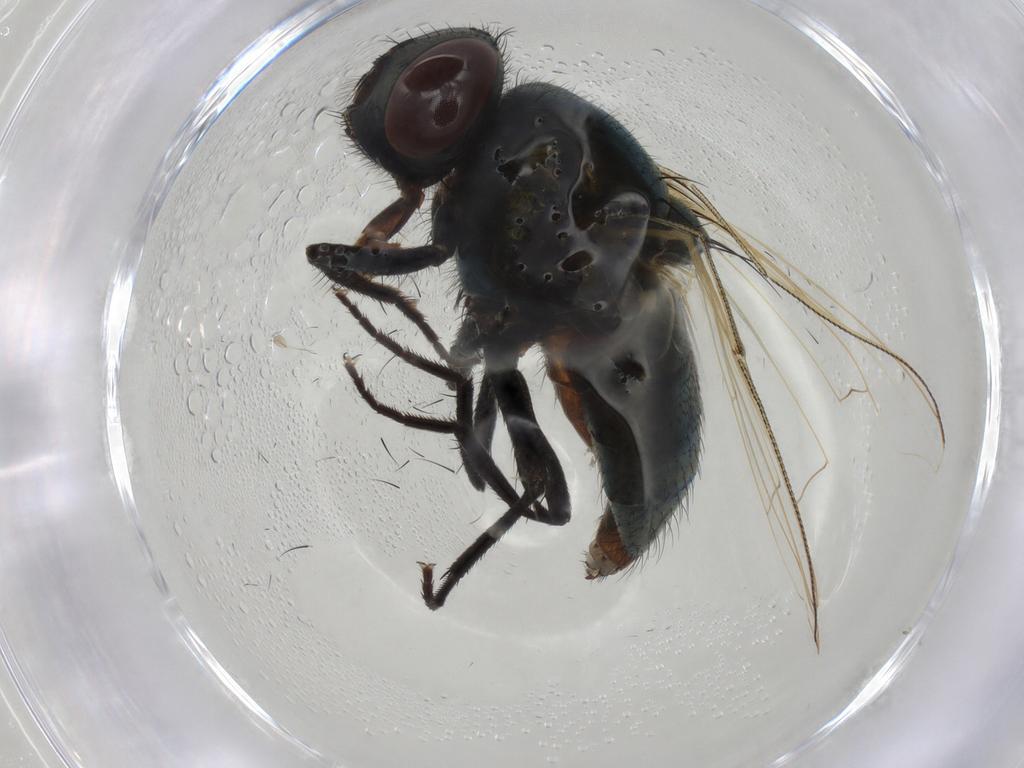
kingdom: Animalia
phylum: Arthropoda
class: Insecta
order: Diptera
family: Muscidae
